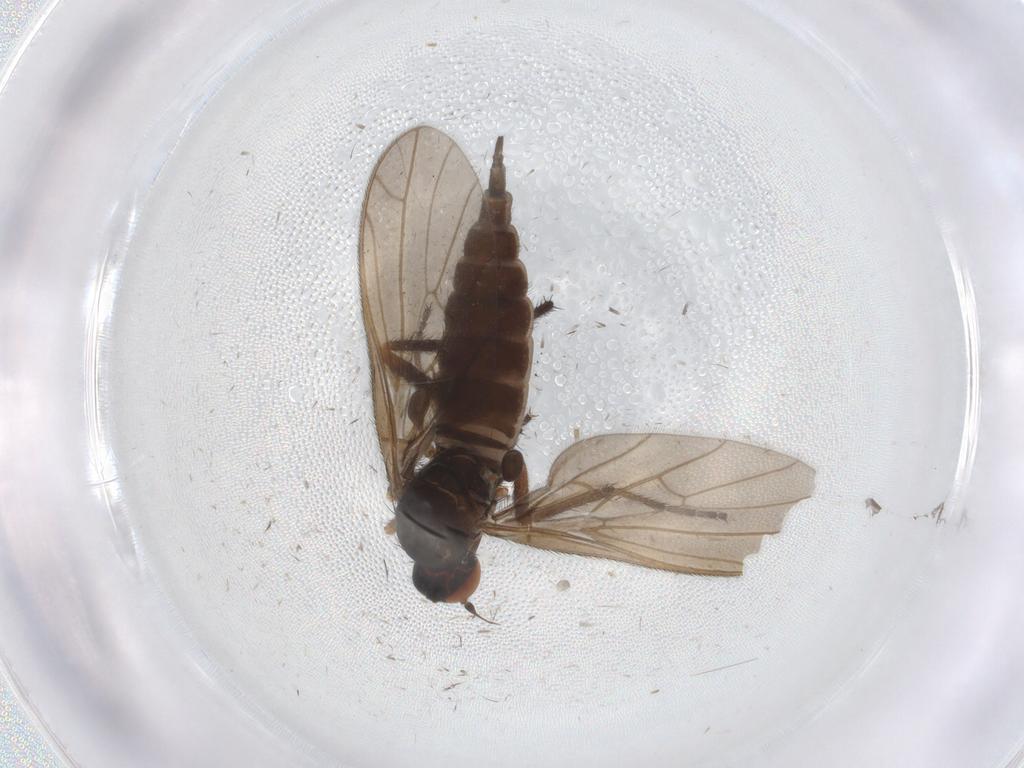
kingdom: Animalia
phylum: Arthropoda
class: Insecta
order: Diptera
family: Empididae
